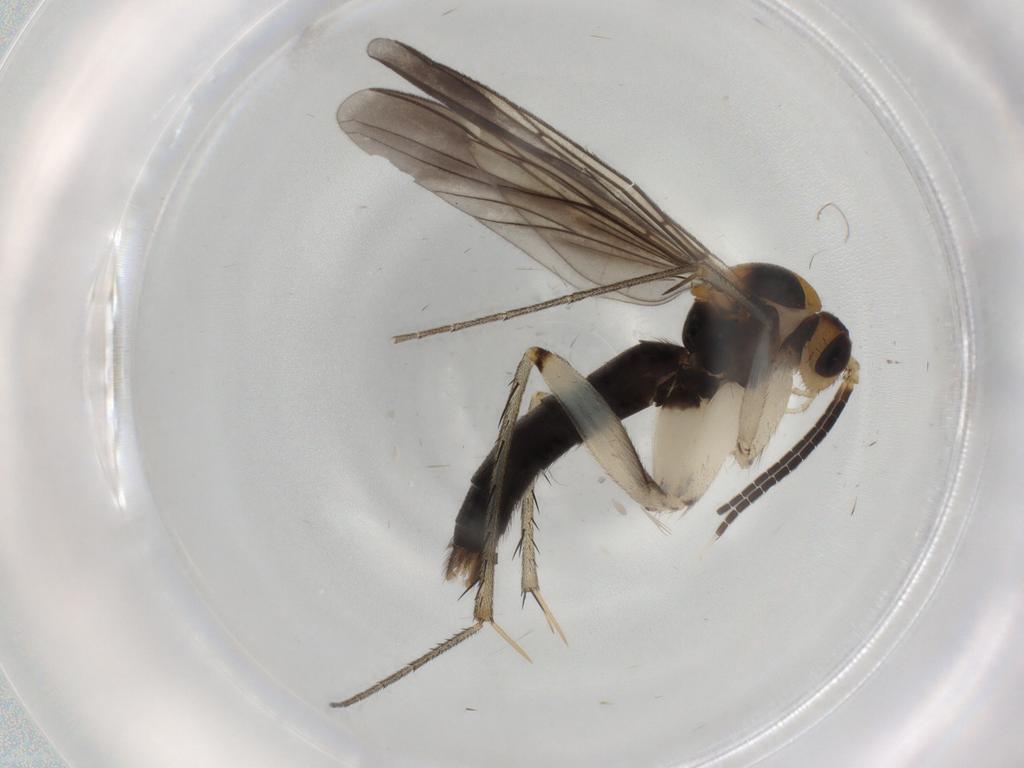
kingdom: Animalia
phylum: Arthropoda
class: Insecta
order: Diptera
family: Mycetophilidae
